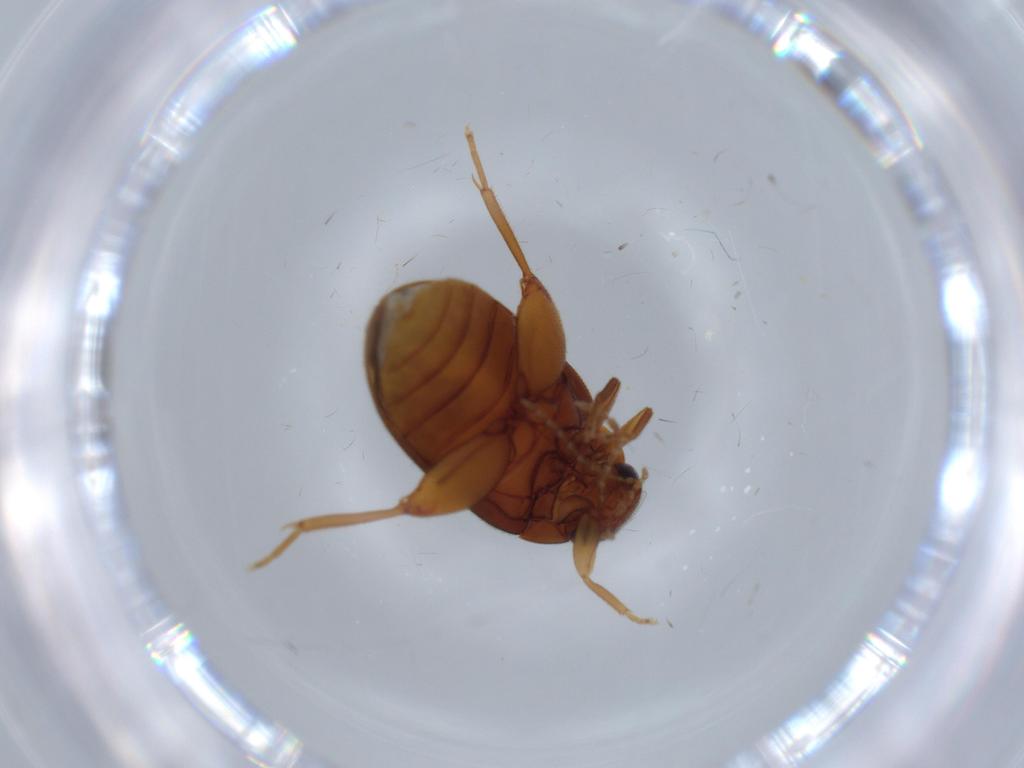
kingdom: Animalia
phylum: Arthropoda
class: Insecta
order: Coleoptera
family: Scirtidae
